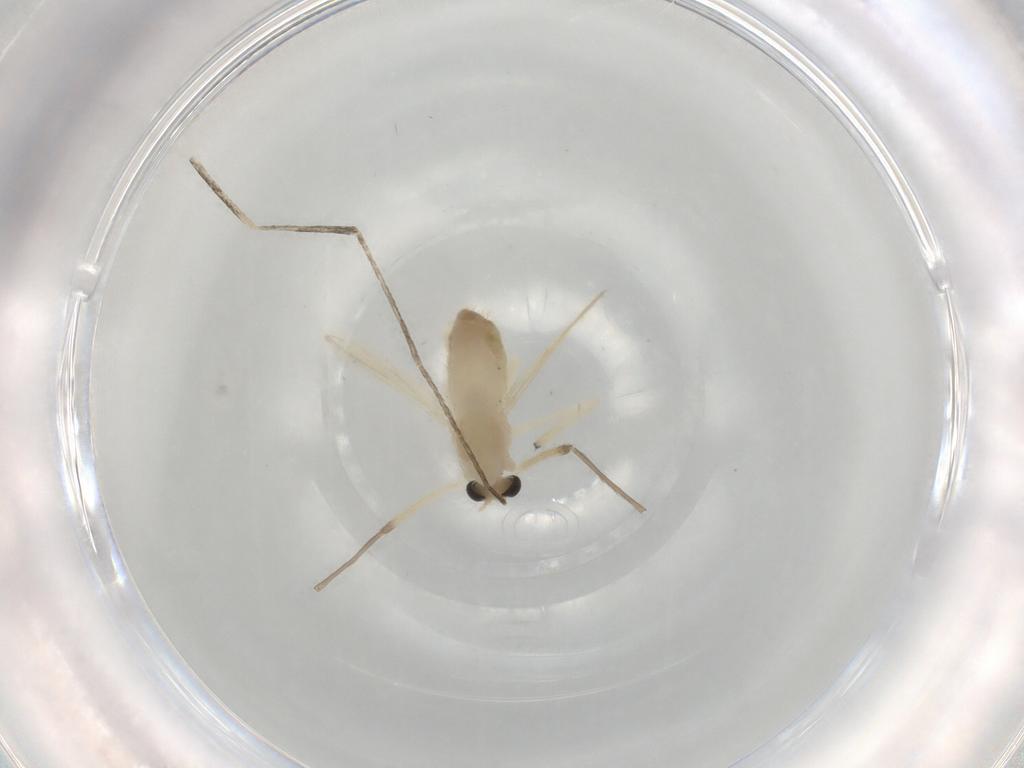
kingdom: Animalia
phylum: Arthropoda
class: Insecta
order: Diptera
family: Chironomidae
